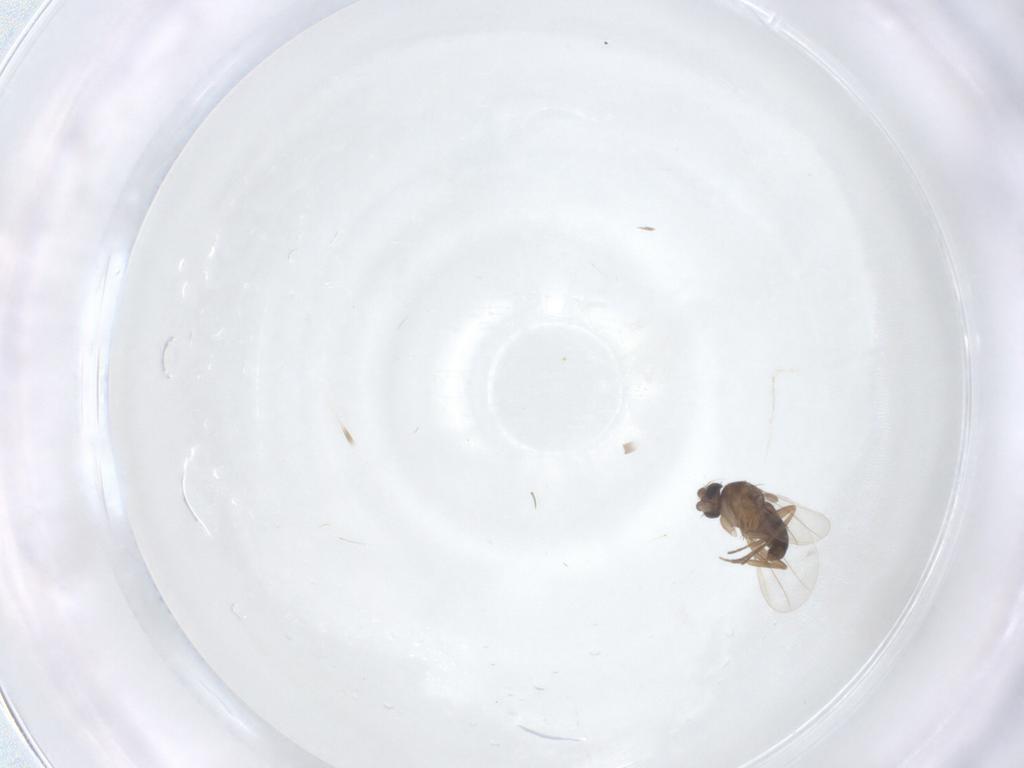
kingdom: Animalia
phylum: Arthropoda
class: Insecta
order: Diptera
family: Phoridae
